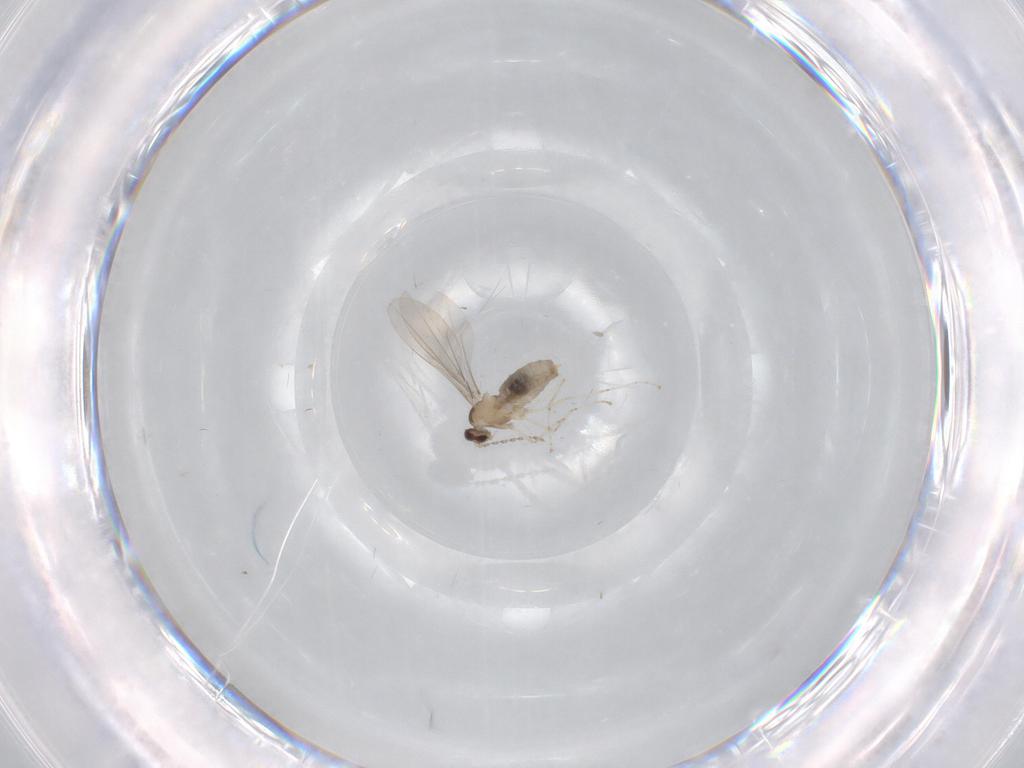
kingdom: Animalia
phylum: Arthropoda
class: Insecta
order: Diptera
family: Cecidomyiidae
